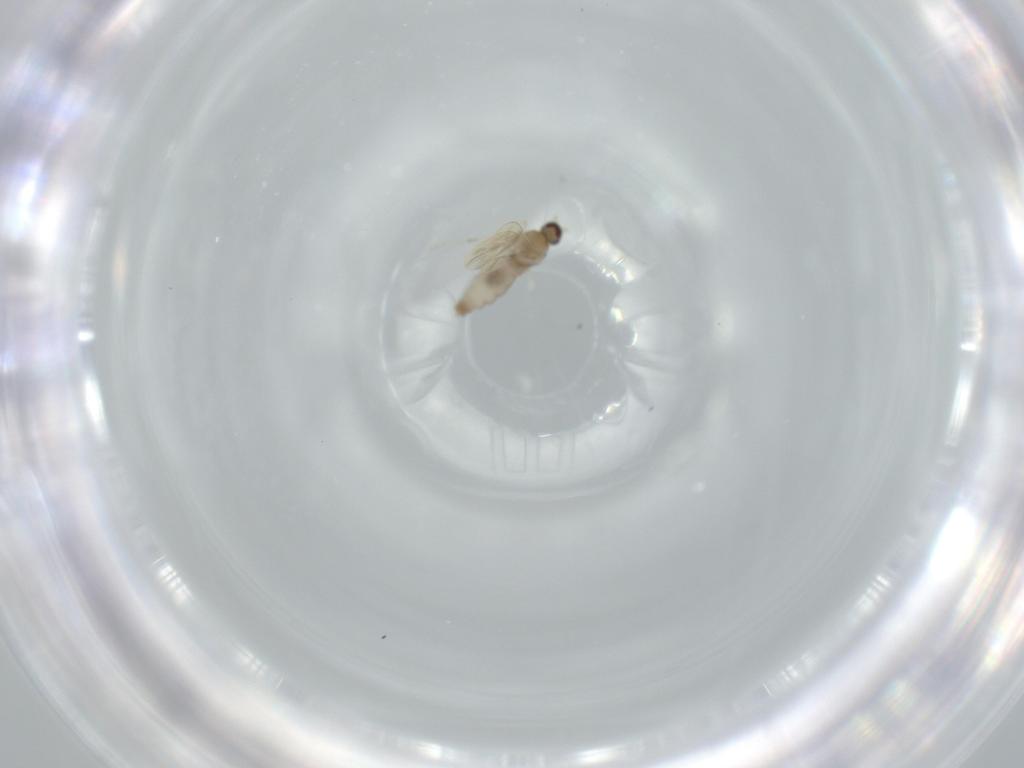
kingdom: Animalia
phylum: Arthropoda
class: Insecta
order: Diptera
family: Cecidomyiidae
